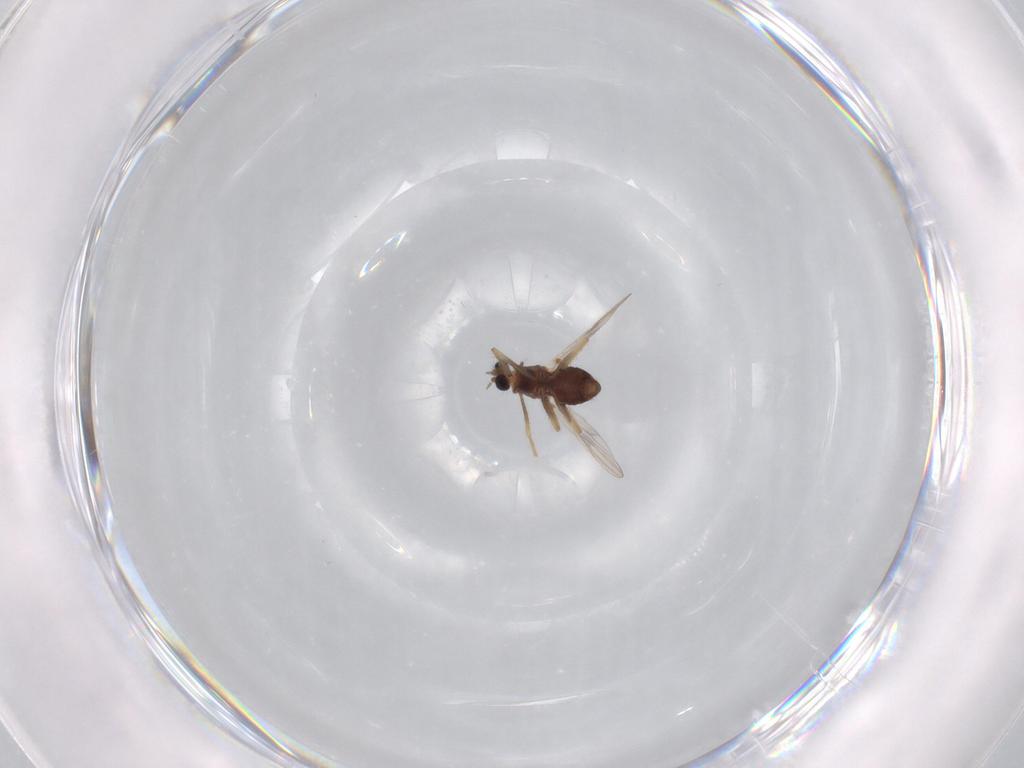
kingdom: Animalia
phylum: Arthropoda
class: Insecta
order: Diptera
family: Chironomidae
